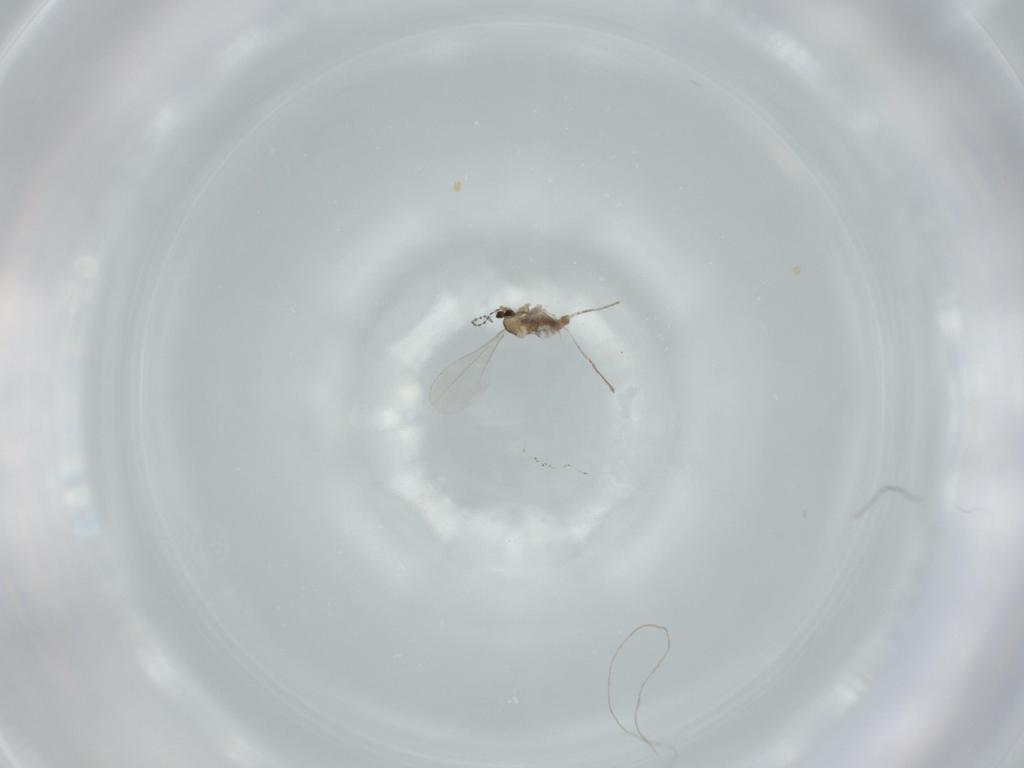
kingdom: Animalia
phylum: Arthropoda
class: Insecta
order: Diptera
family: Cecidomyiidae
